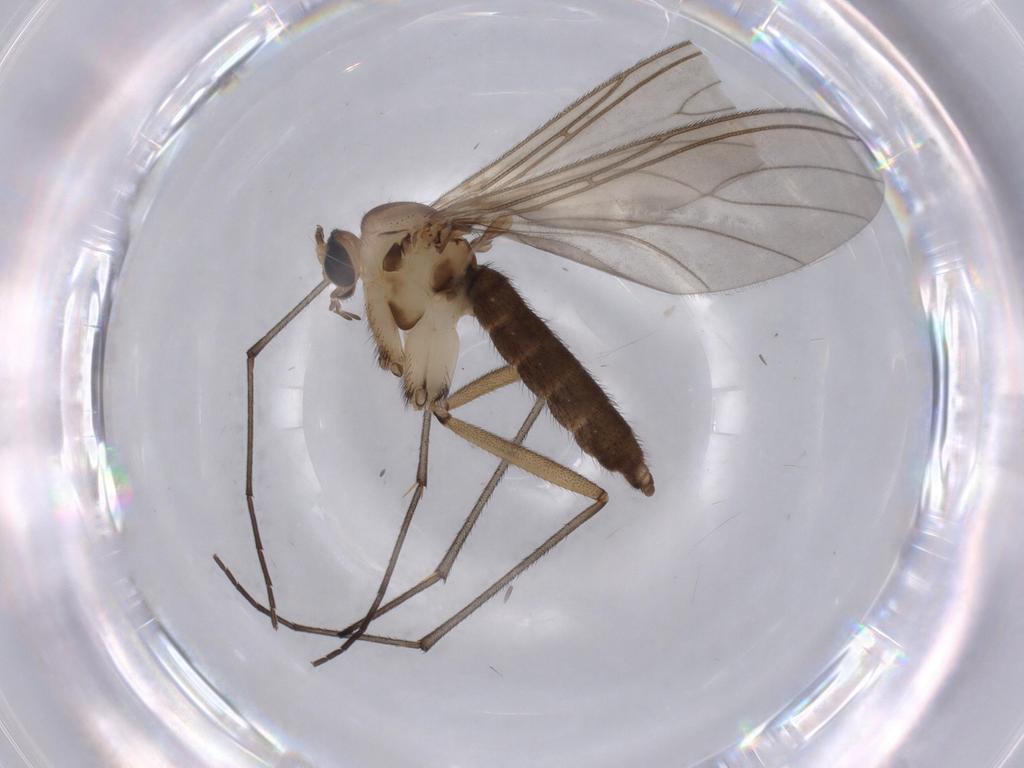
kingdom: Animalia
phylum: Arthropoda
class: Insecta
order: Diptera
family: Sciaridae
